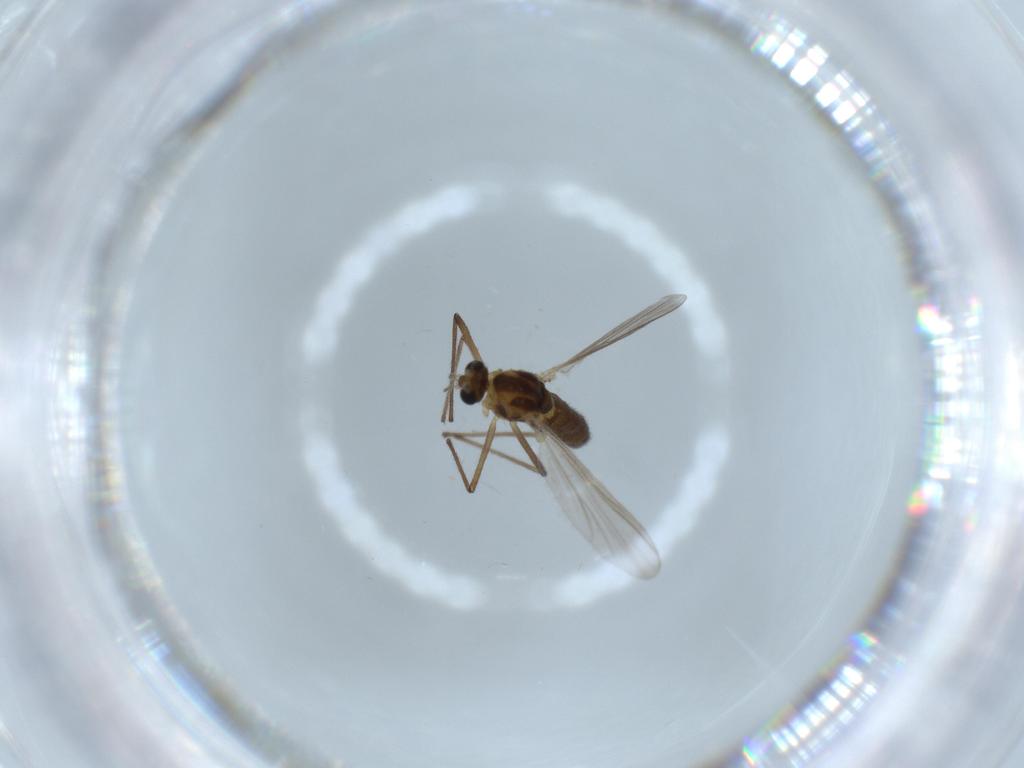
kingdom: Animalia
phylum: Arthropoda
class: Insecta
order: Diptera
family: Chironomidae
